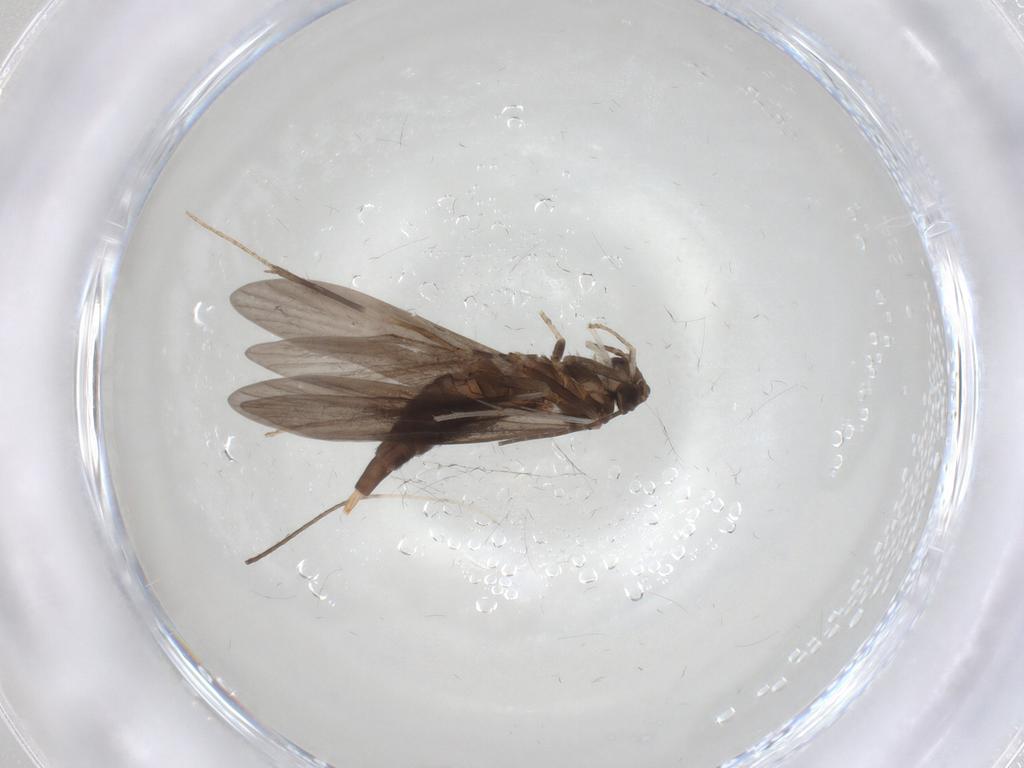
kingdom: Animalia
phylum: Arthropoda
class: Insecta
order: Trichoptera
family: Xiphocentronidae
